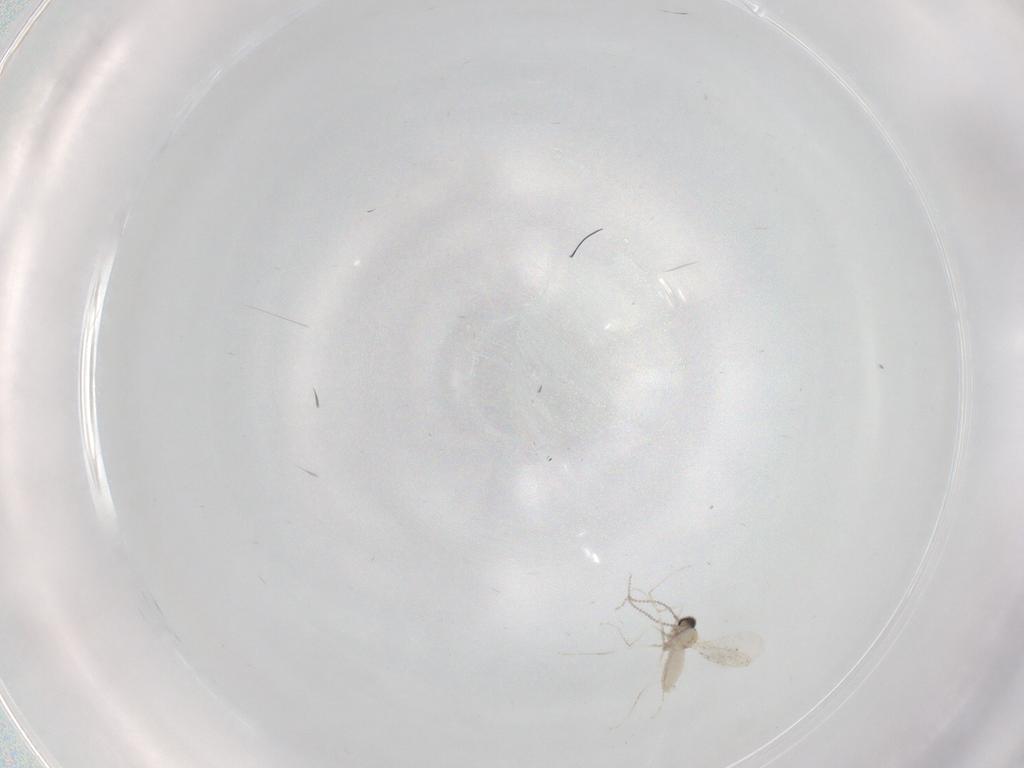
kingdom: Animalia
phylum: Arthropoda
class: Insecta
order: Diptera
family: Sciaridae
